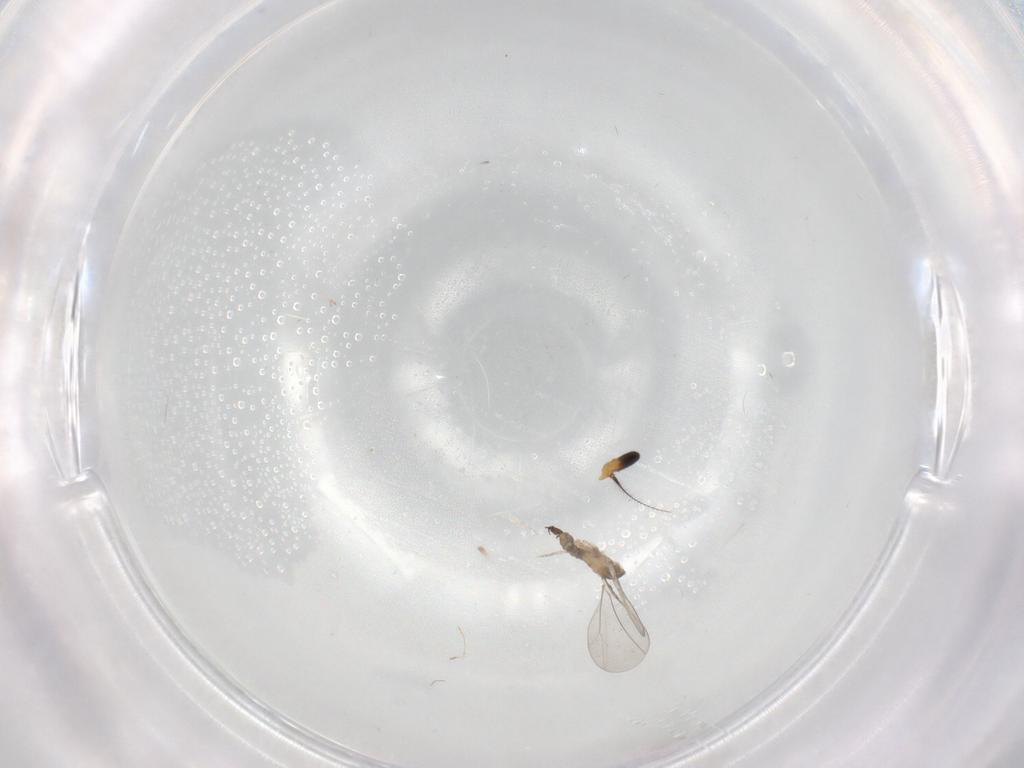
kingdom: Animalia
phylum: Arthropoda
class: Insecta
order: Diptera
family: Cecidomyiidae
